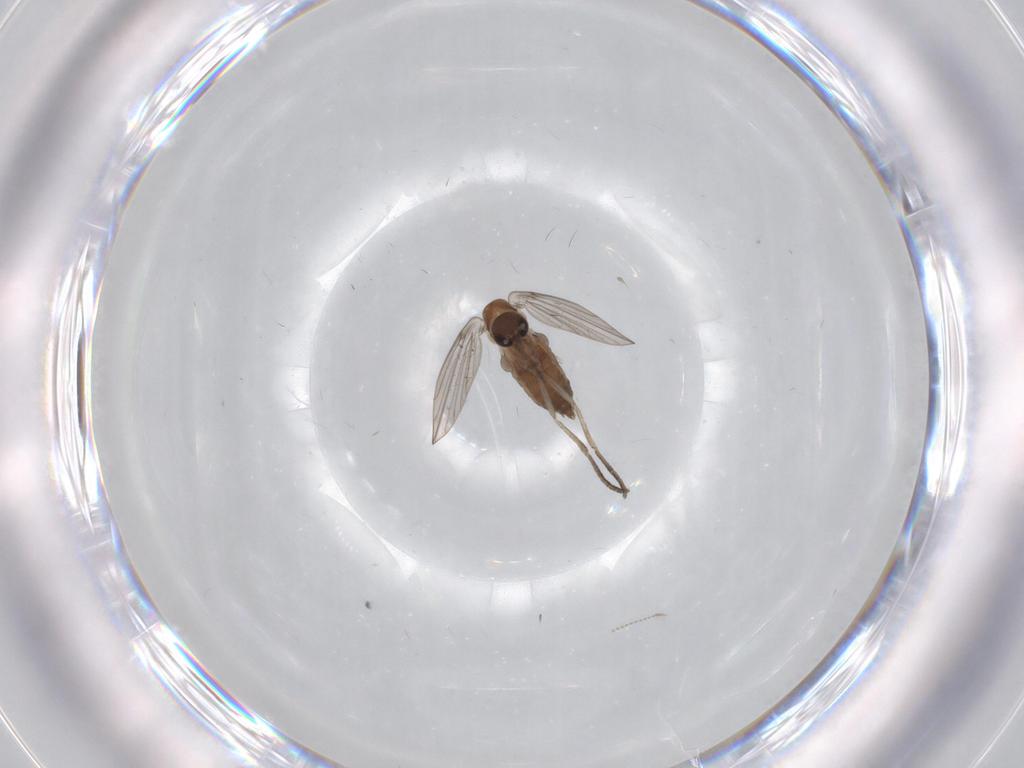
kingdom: Animalia
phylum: Arthropoda
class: Insecta
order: Diptera
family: Psychodidae
